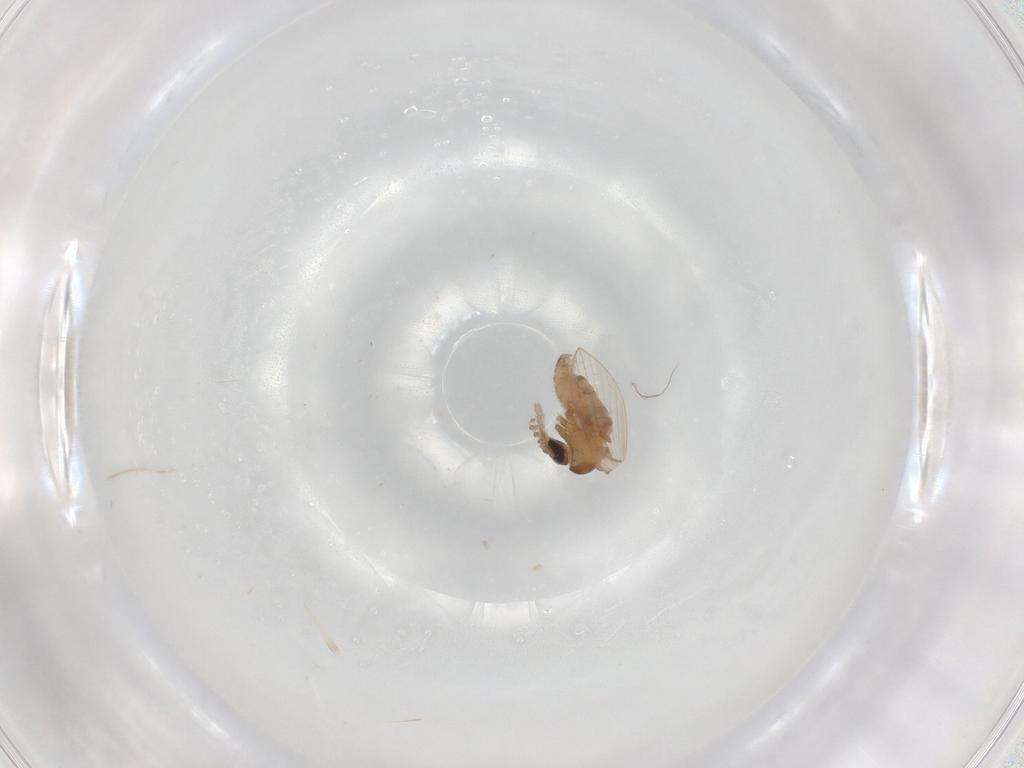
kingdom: Animalia
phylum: Arthropoda
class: Insecta
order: Diptera
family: Psychodidae
